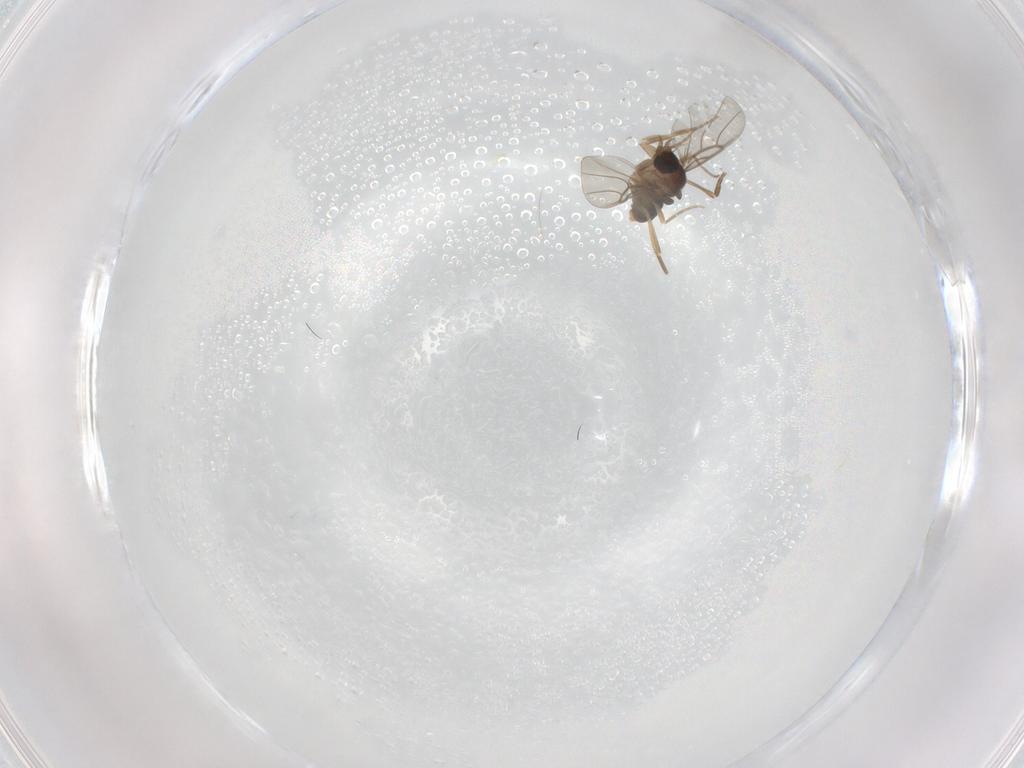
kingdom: Animalia
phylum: Arthropoda
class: Insecta
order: Diptera
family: Phoridae
